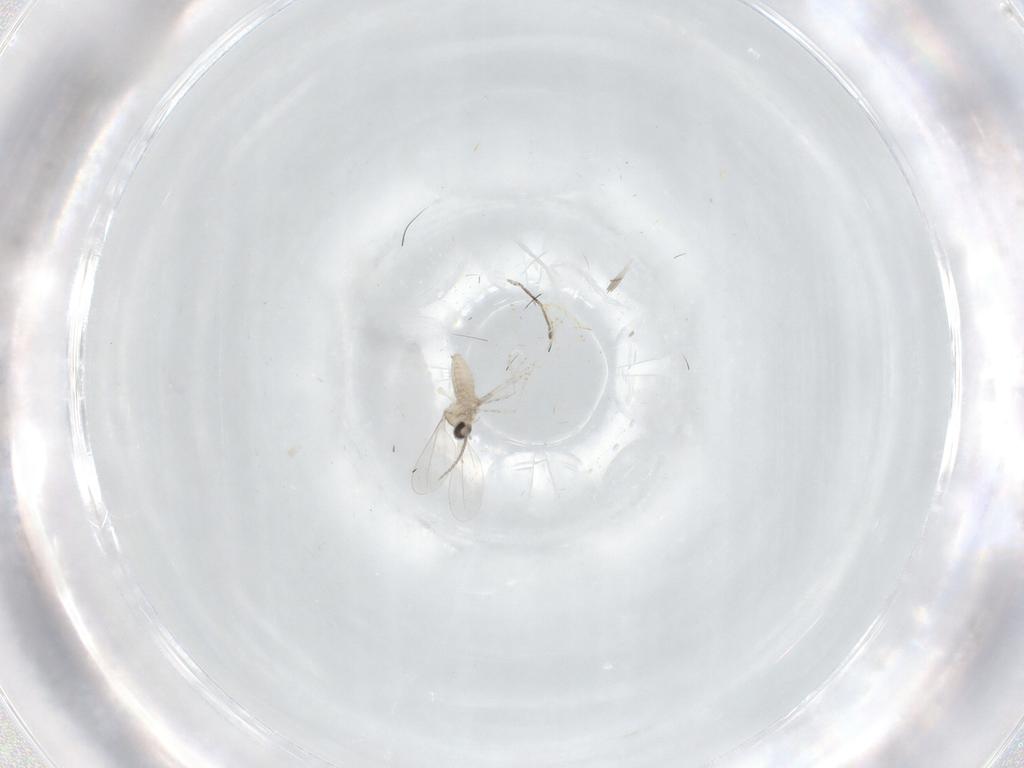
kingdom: Animalia
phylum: Arthropoda
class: Insecta
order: Diptera
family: Cecidomyiidae
